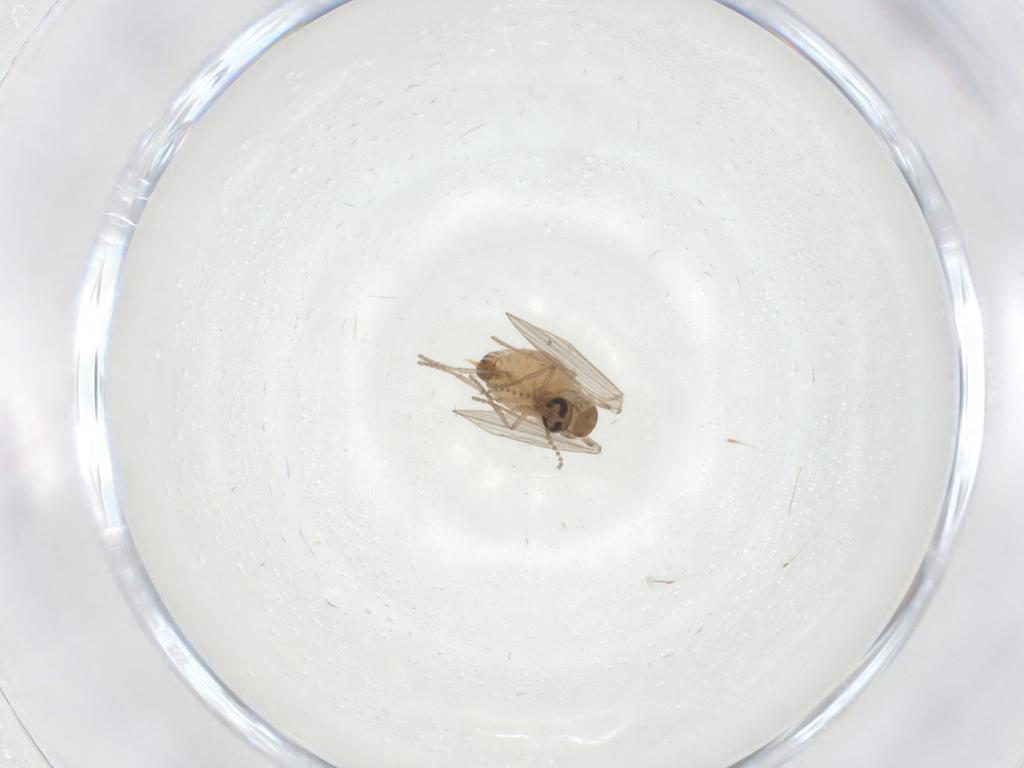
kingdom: Animalia
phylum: Arthropoda
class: Insecta
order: Diptera
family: Psychodidae
